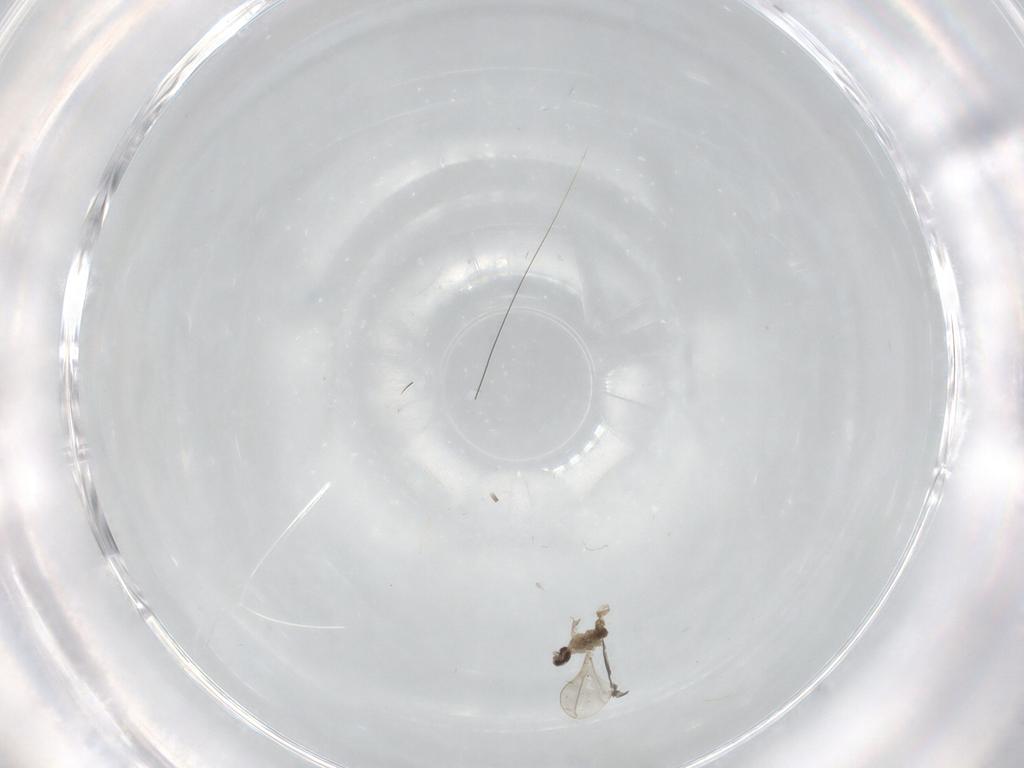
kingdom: Animalia
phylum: Arthropoda
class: Insecta
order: Diptera
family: Cecidomyiidae
